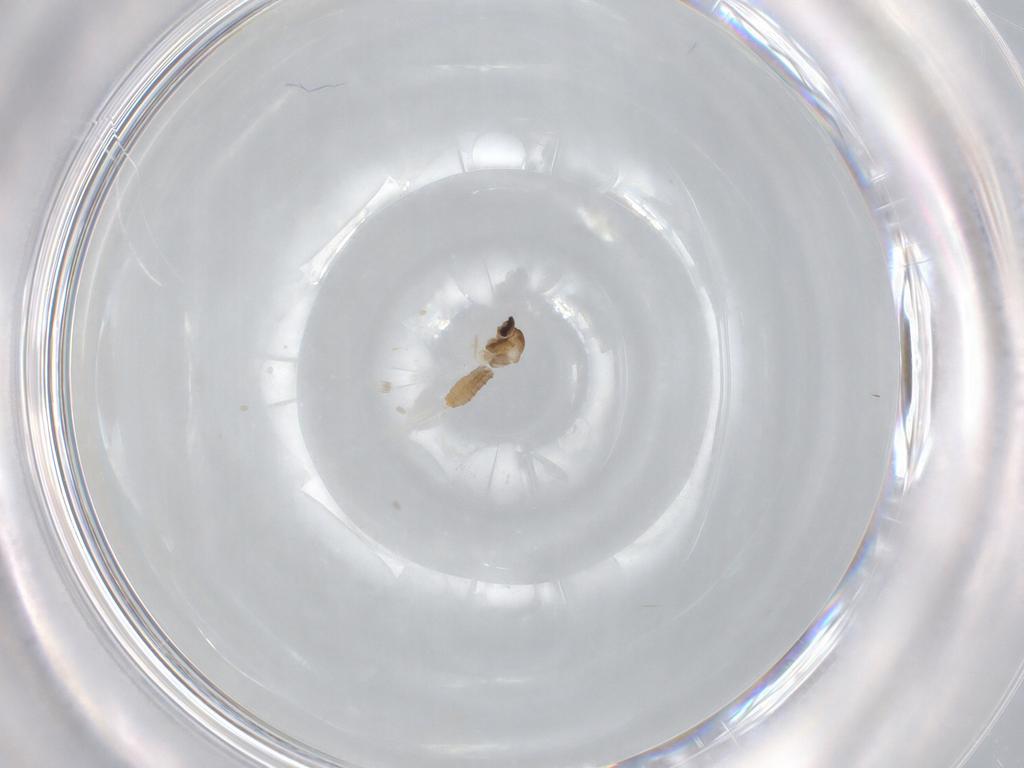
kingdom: Animalia
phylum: Arthropoda
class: Insecta
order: Diptera
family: Cecidomyiidae
